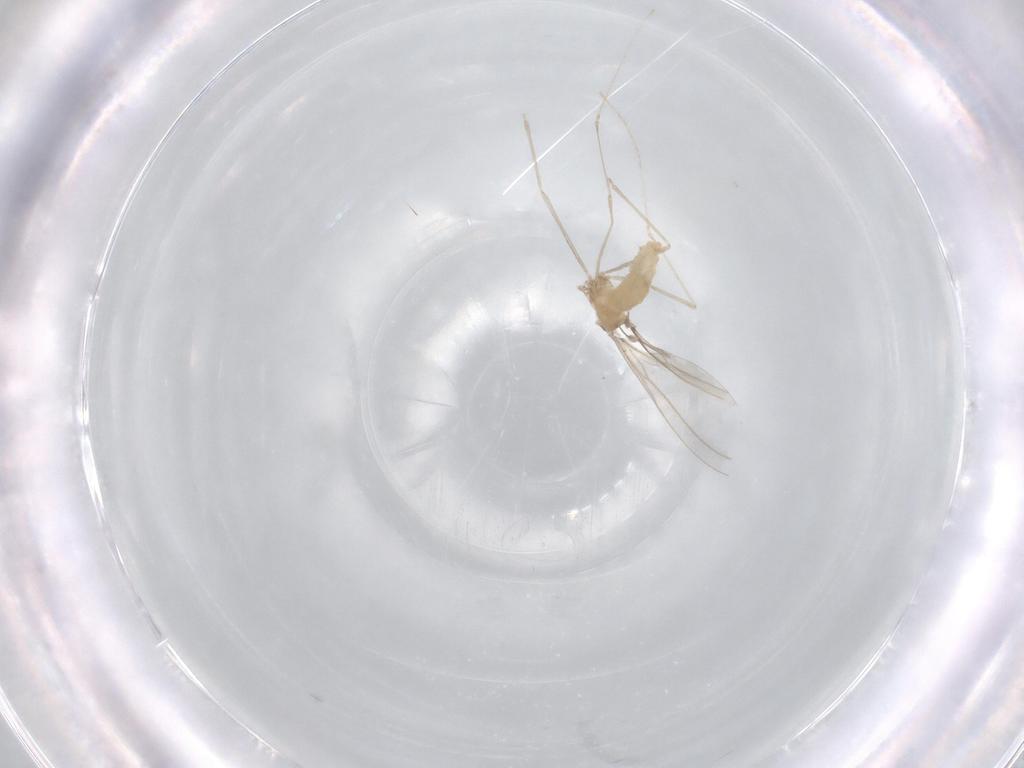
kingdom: Animalia
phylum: Arthropoda
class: Insecta
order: Diptera
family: Cecidomyiidae
